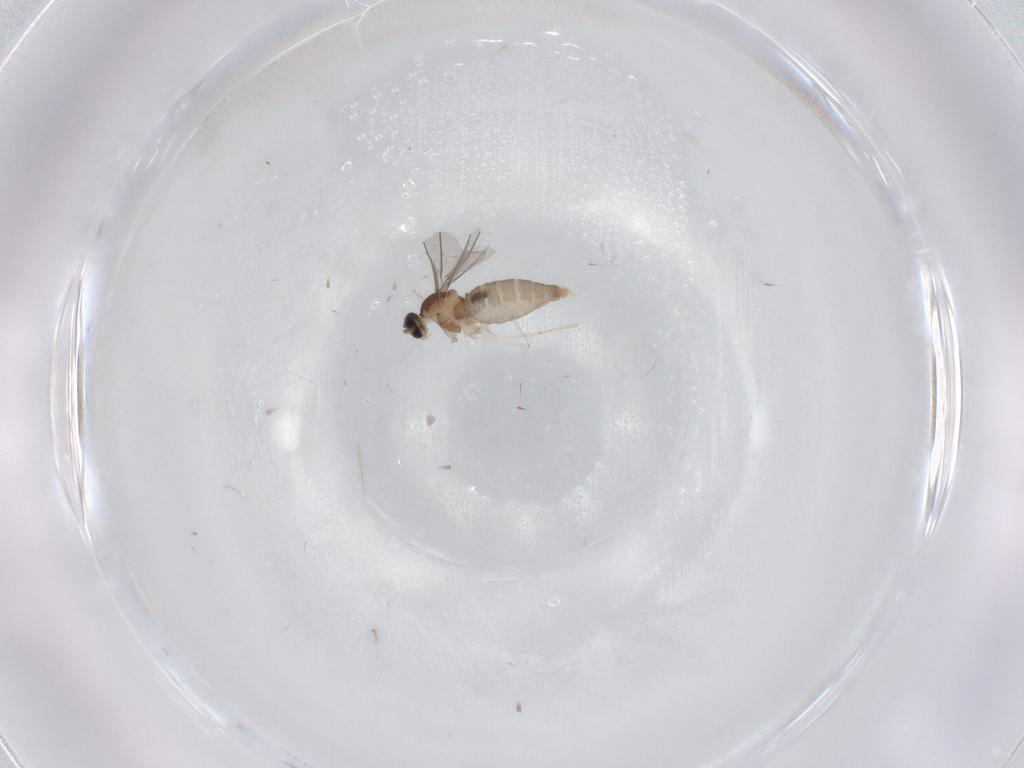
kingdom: Animalia
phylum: Arthropoda
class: Insecta
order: Diptera
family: Cecidomyiidae
